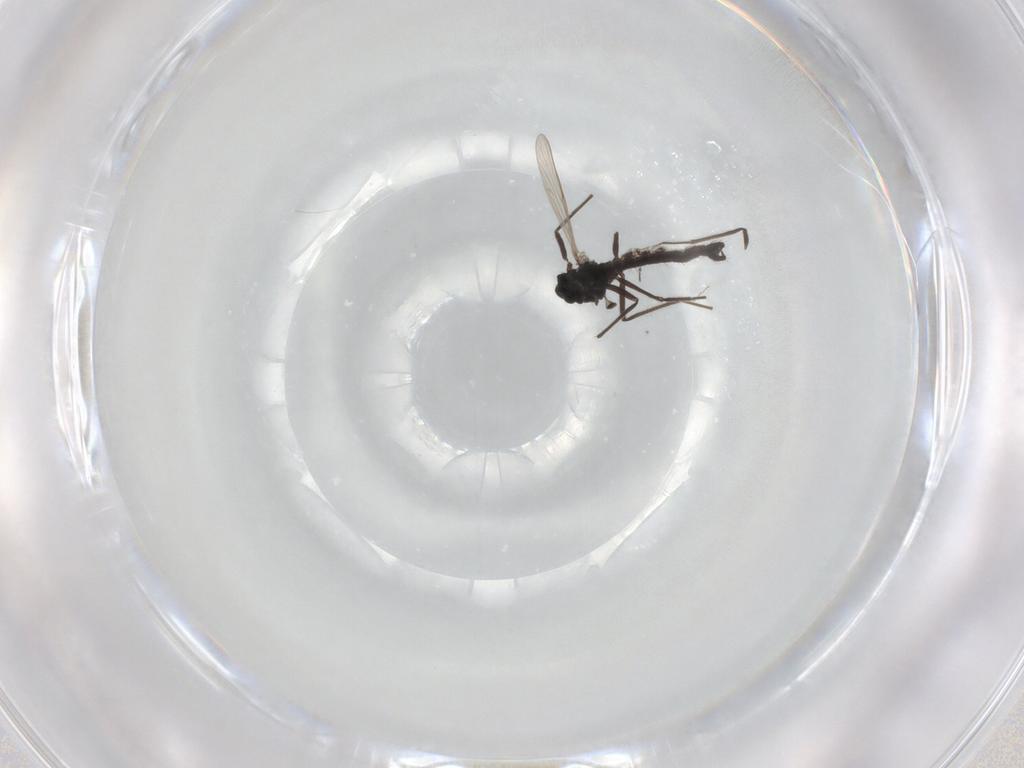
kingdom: Animalia
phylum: Arthropoda
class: Insecta
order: Diptera
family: Chironomidae
